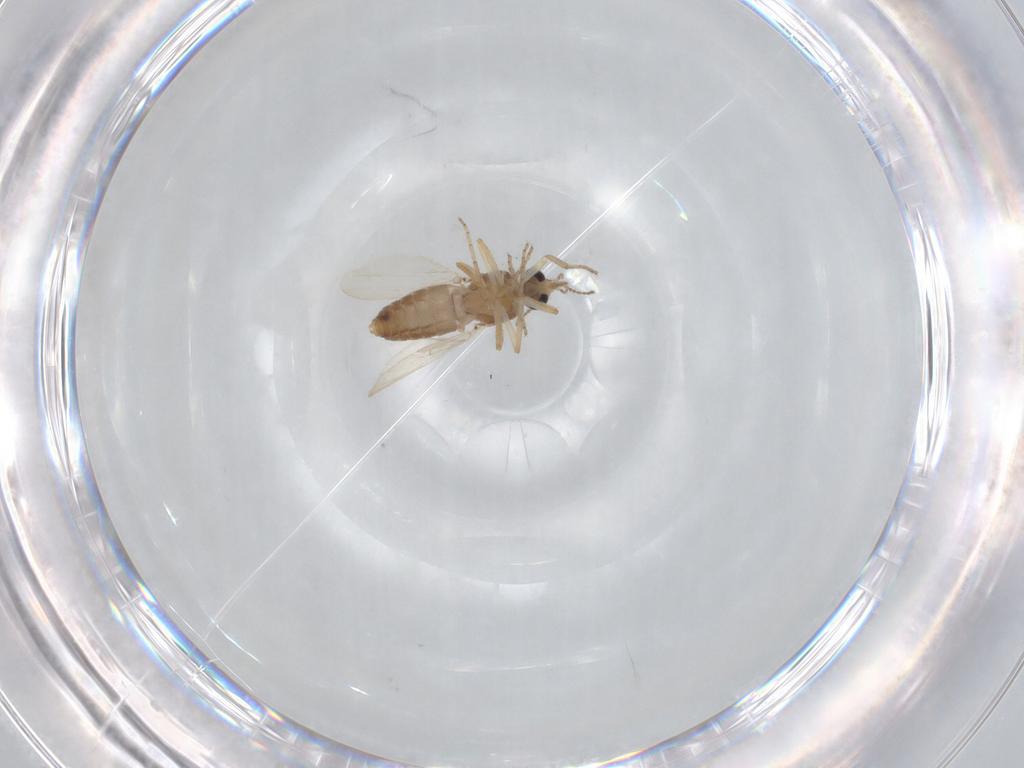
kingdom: Animalia
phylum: Arthropoda
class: Insecta
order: Diptera
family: Ceratopogonidae
